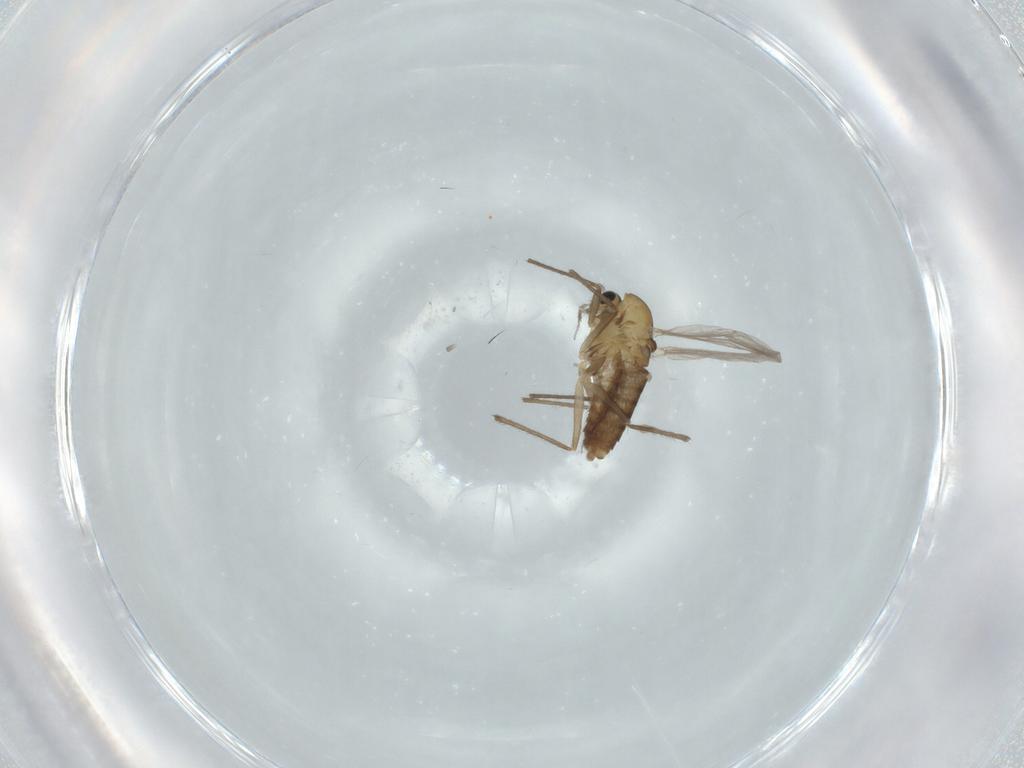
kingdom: Animalia
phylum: Arthropoda
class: Insecta
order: Diptera
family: Chironomidae
